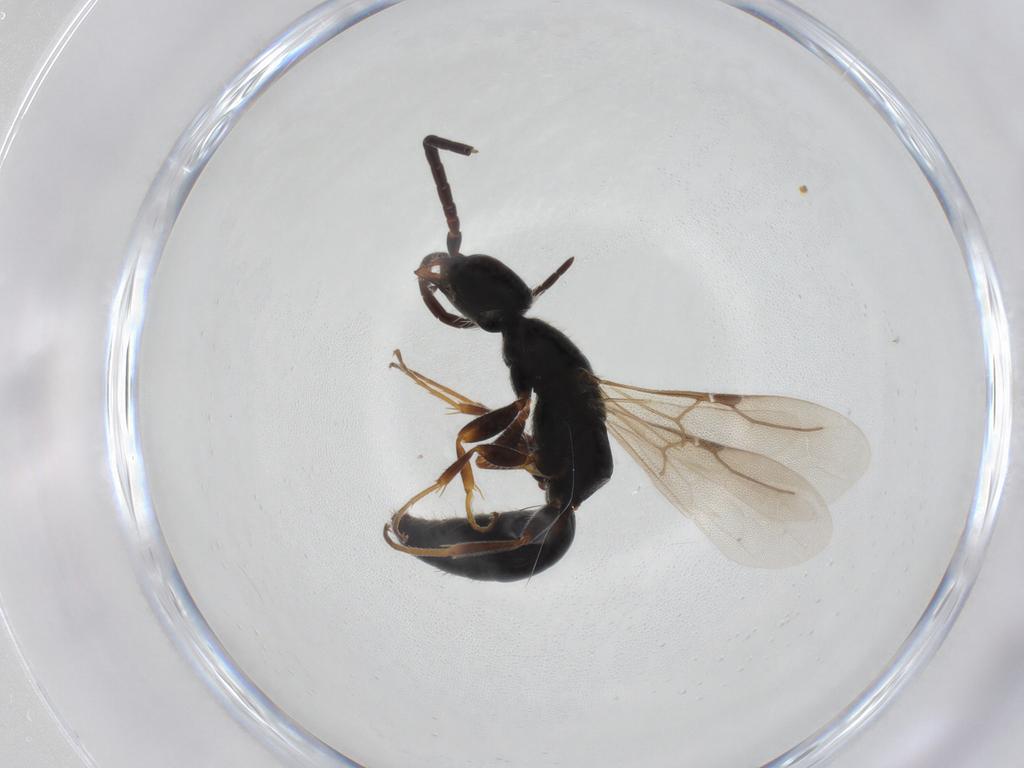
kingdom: Animalia
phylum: Arthropoda
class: Insecta
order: Hymenoptera
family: Bethylidae
